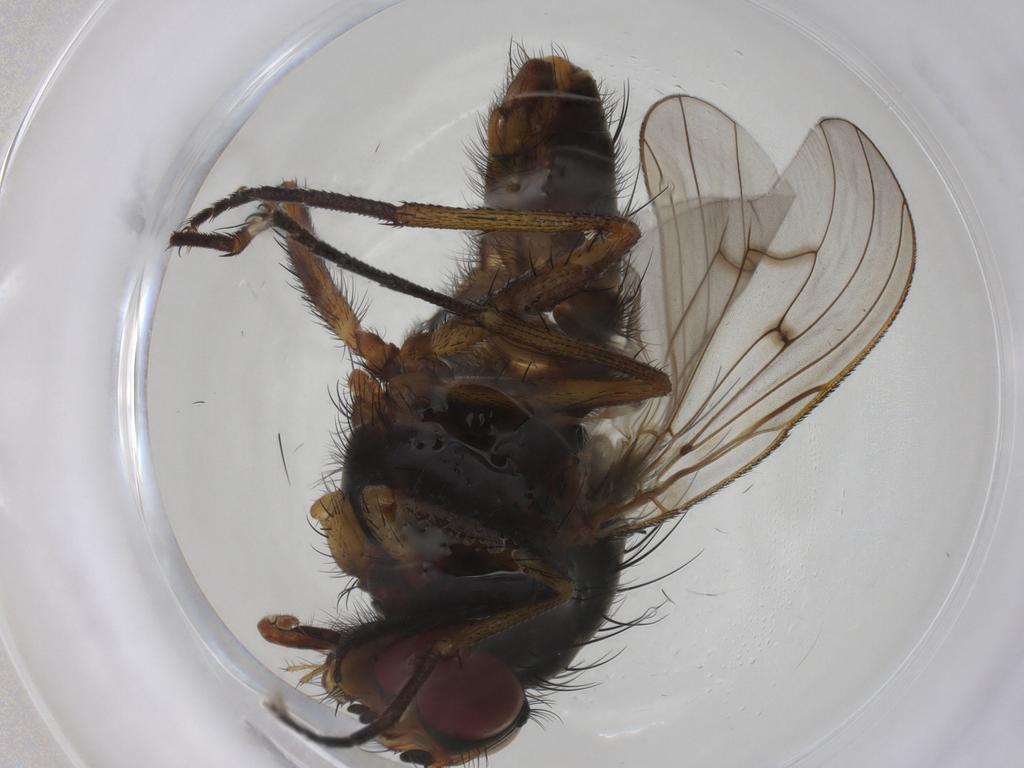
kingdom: Animalia
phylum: Arthropoda
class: Insecta
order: Diptera
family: Anthomyiidae
